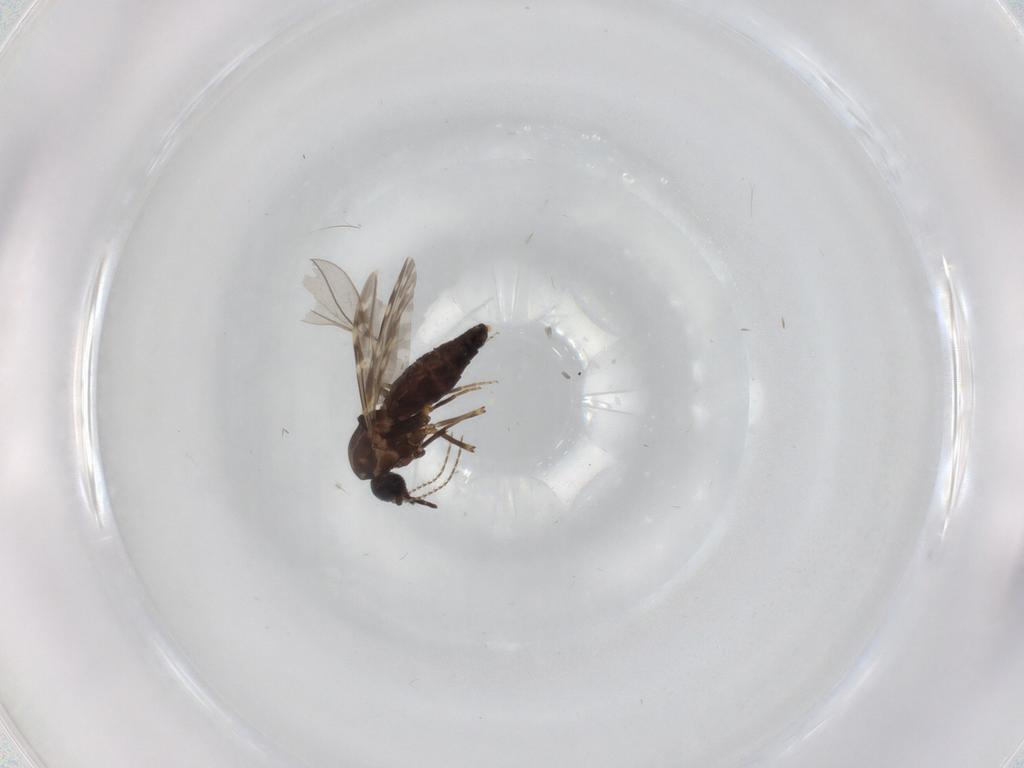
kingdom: Animalia
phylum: Arthropoda
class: Insecta
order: Diptera
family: Ceratopogonidae
